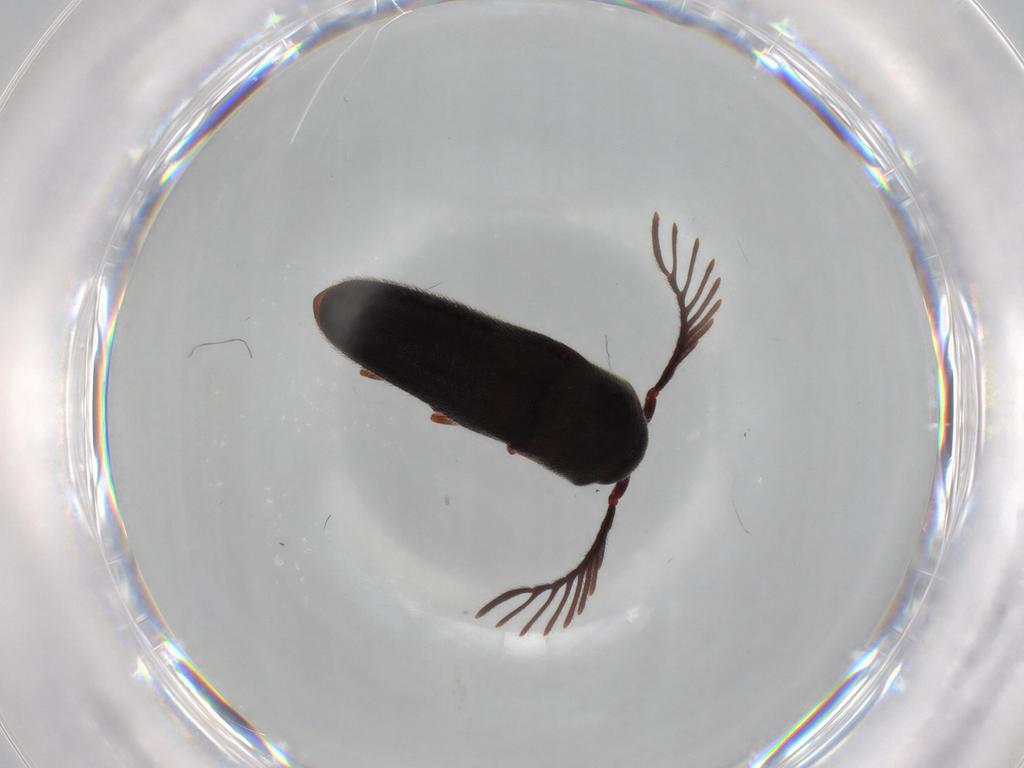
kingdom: Animalia
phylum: Arthropoda
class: Insecta
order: Coleoptera
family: Eucnemidae
